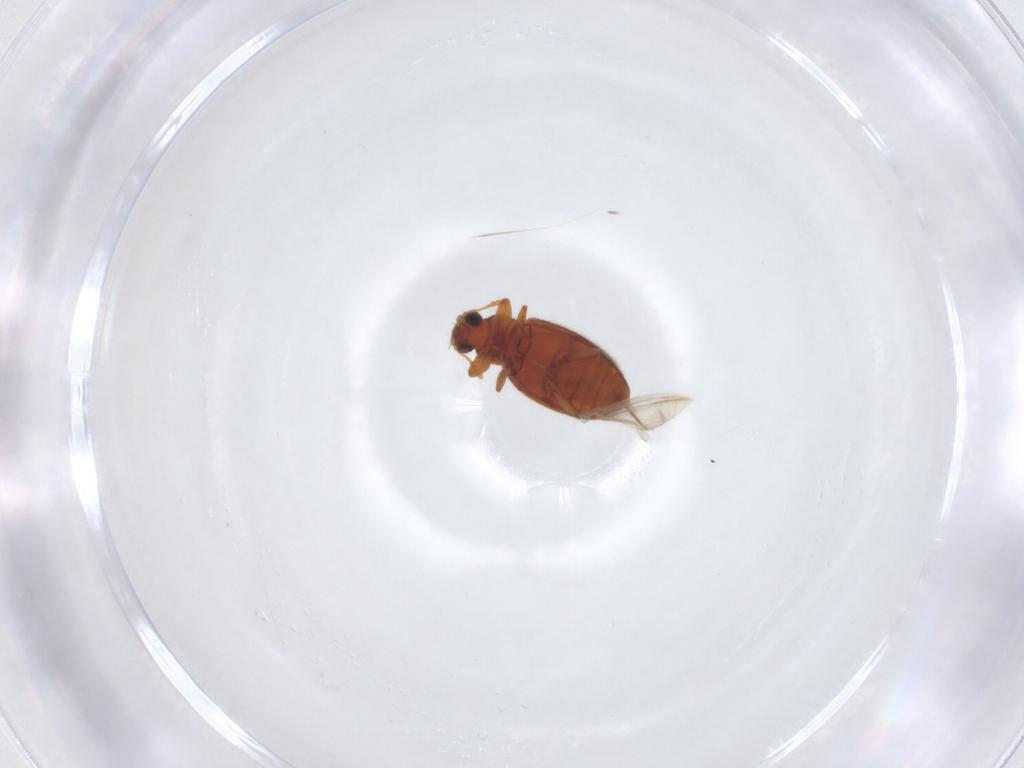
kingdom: Animalia
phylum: Arthropoda
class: Insecta
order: Coleoptera
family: Latridiidae
